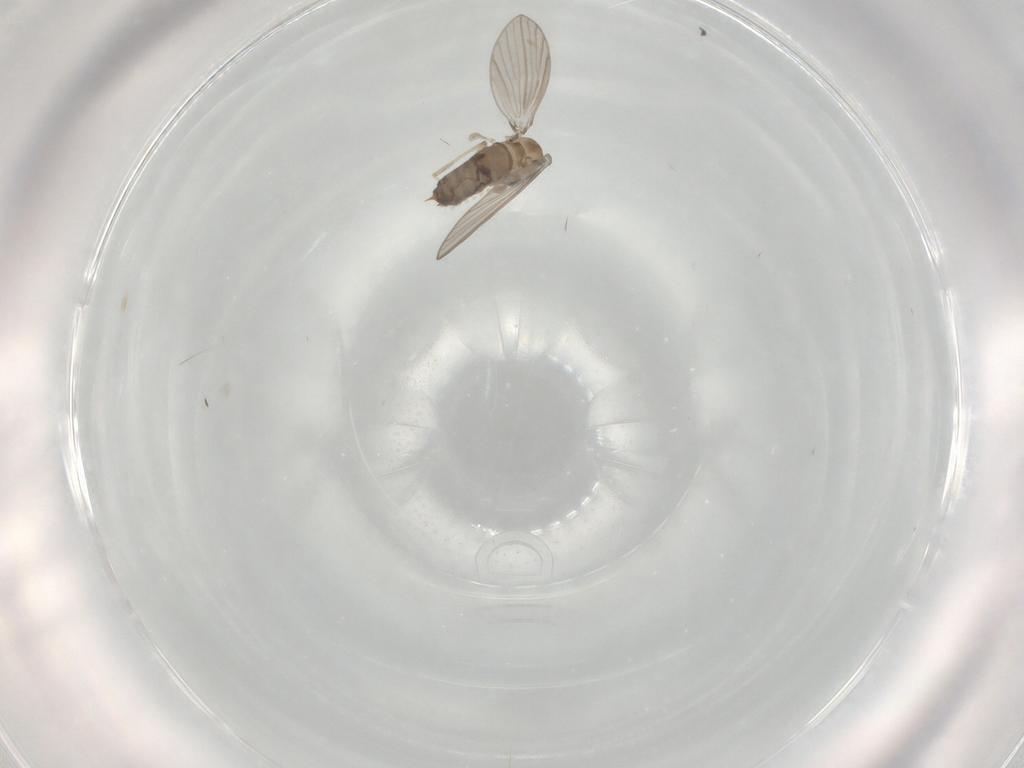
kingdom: Animalia
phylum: Arthropoda
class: Insecta
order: Diptera
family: Psychodidae
